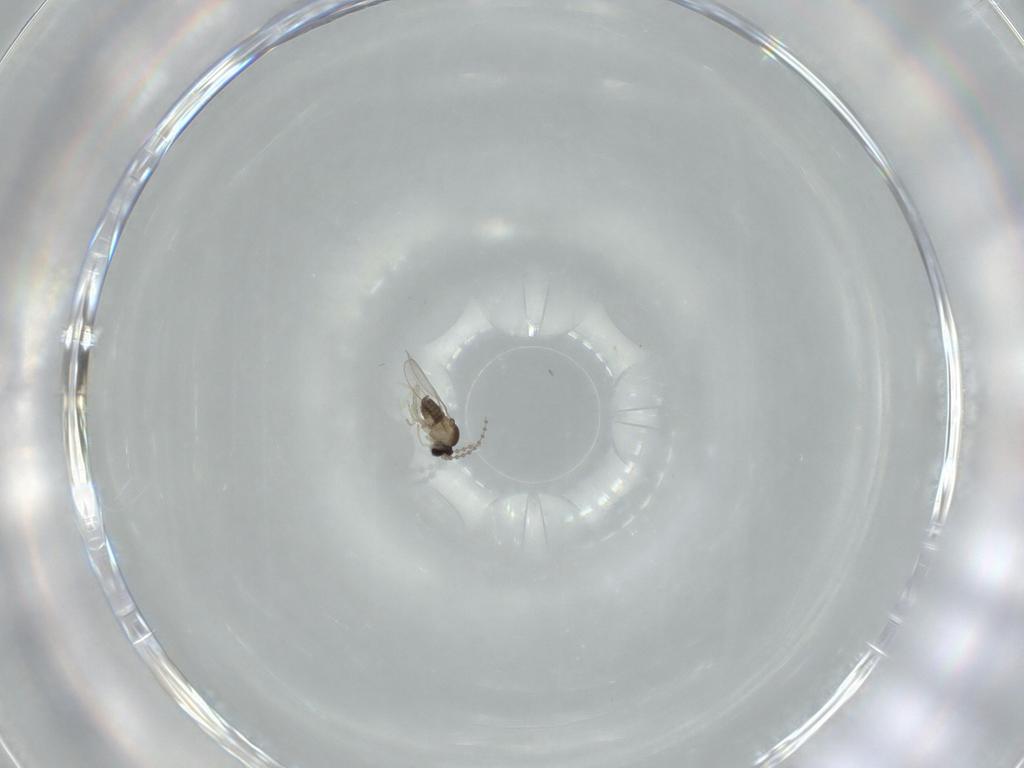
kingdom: Animalia
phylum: Arthropoda
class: Insecta
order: Diptera
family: Cecidomyiidae
